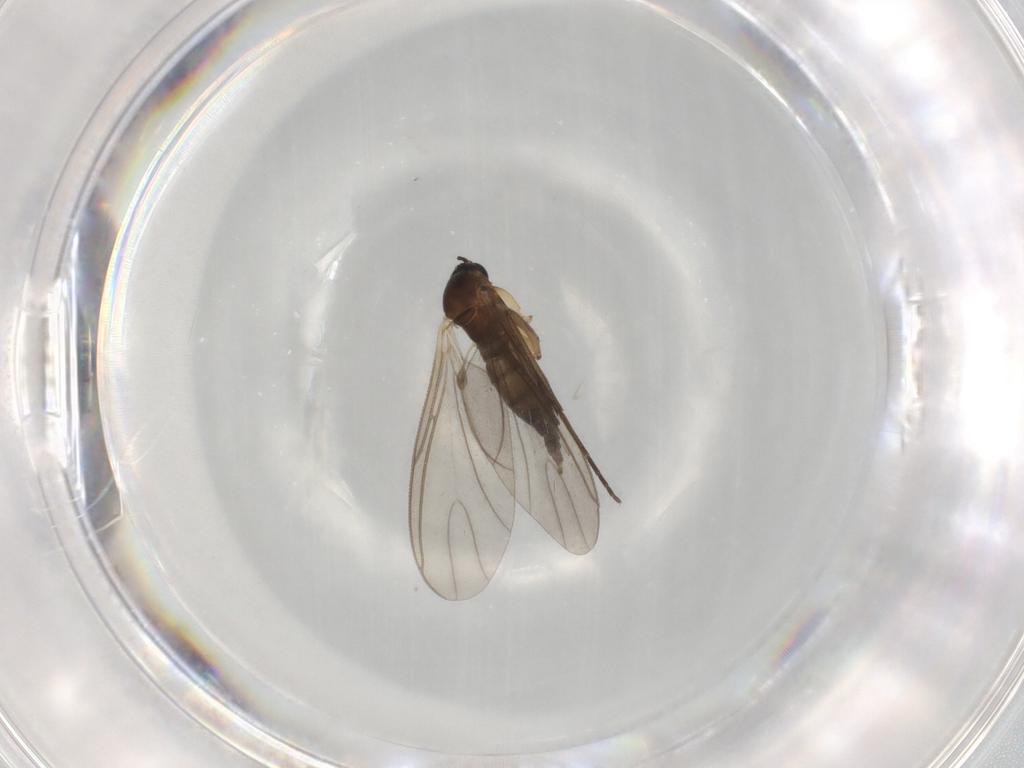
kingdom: Animalia
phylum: Arthropoda
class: Insecta
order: Diptera
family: Sciaridae
